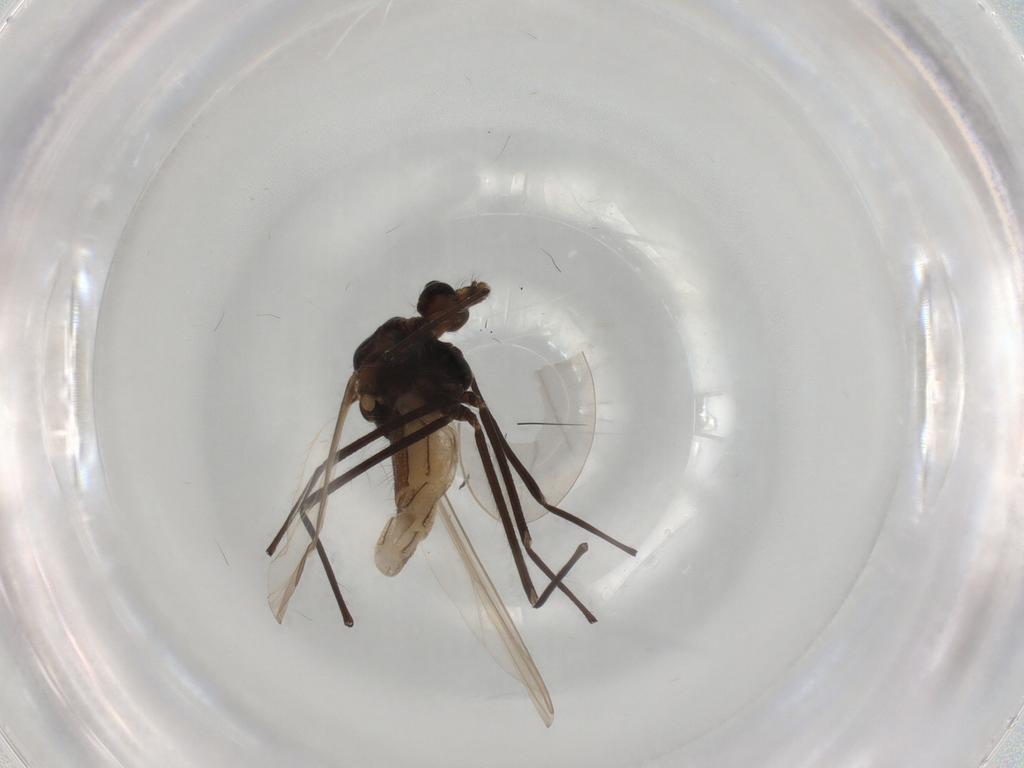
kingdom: Animalia
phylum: Arthropoda
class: Insecta
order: Diptera
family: Chironomidae
